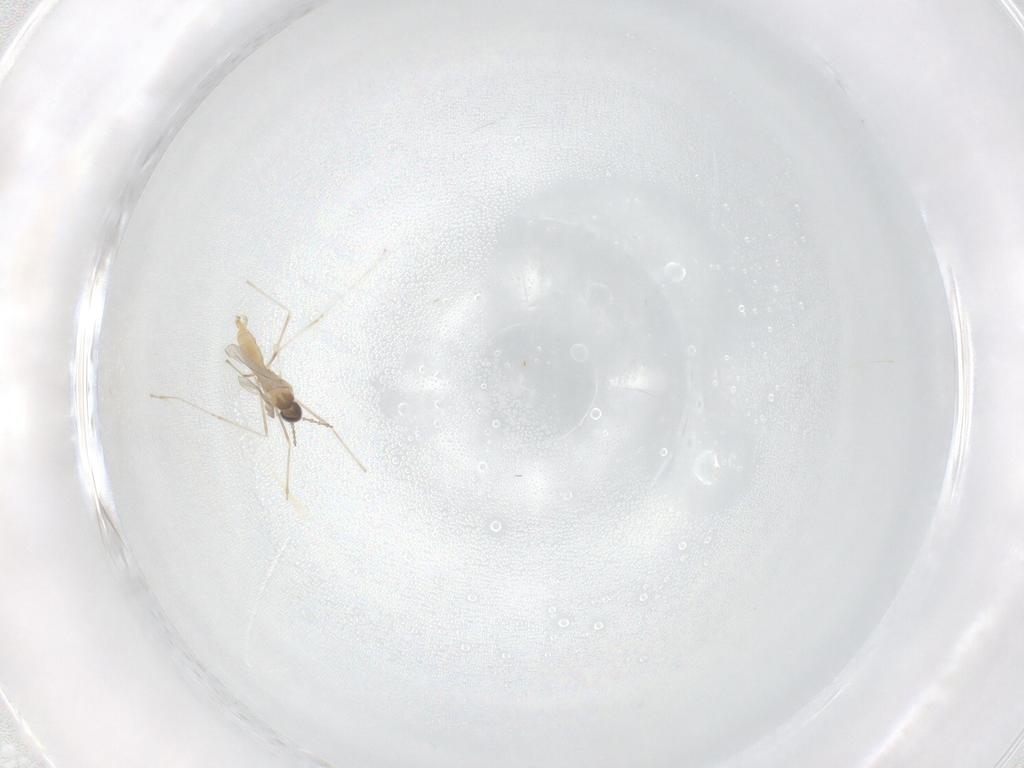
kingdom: Animalia
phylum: Arthropoda
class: Insecta
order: Diptera
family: Cecidomyiidae
